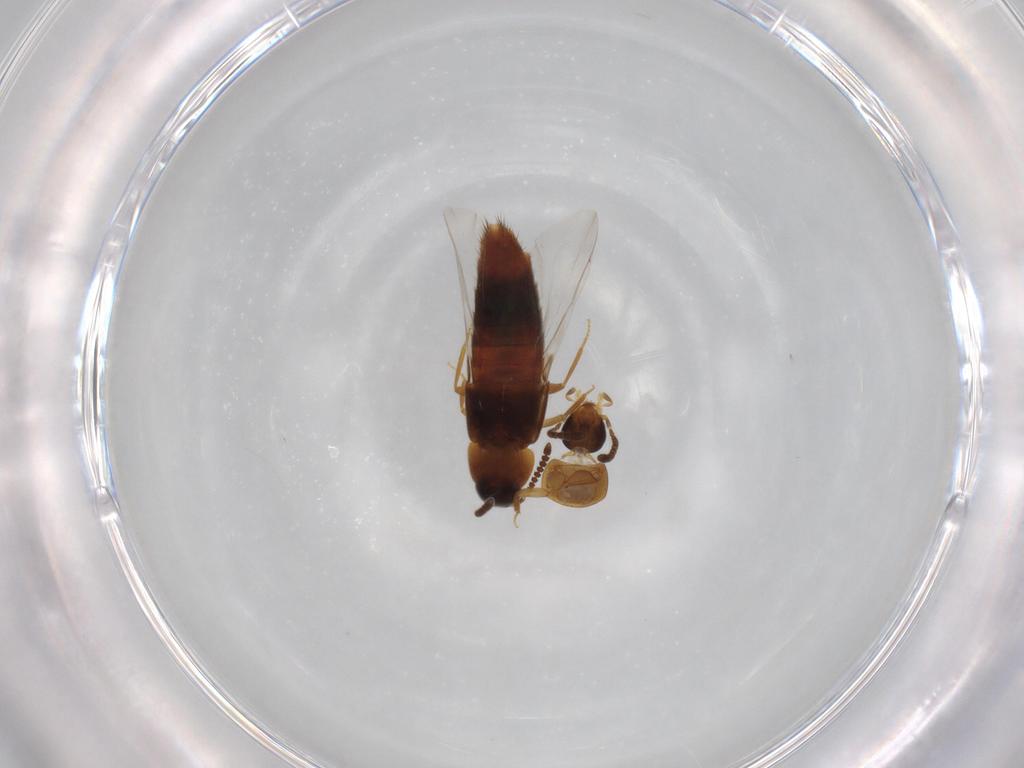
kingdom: Animalia
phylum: Arthropoda
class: Insecta
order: Coleoptera
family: Staphylinidae
